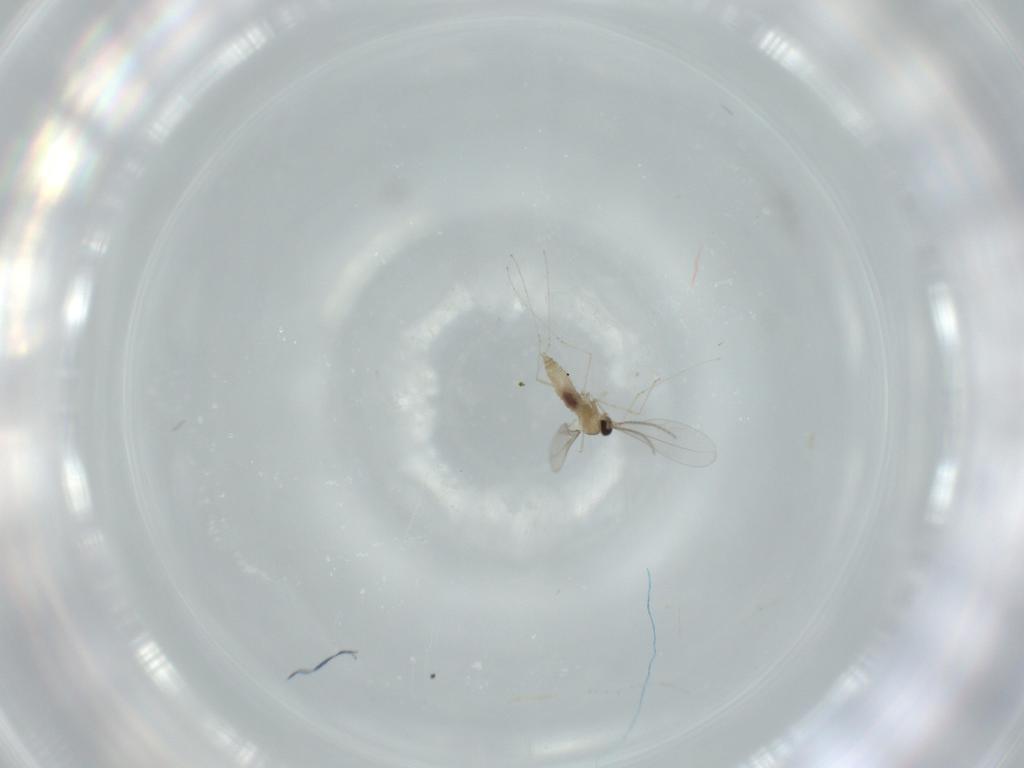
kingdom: Animalia
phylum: Arthropoda
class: Insecta
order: Diptera
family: Cecidomyiidae
